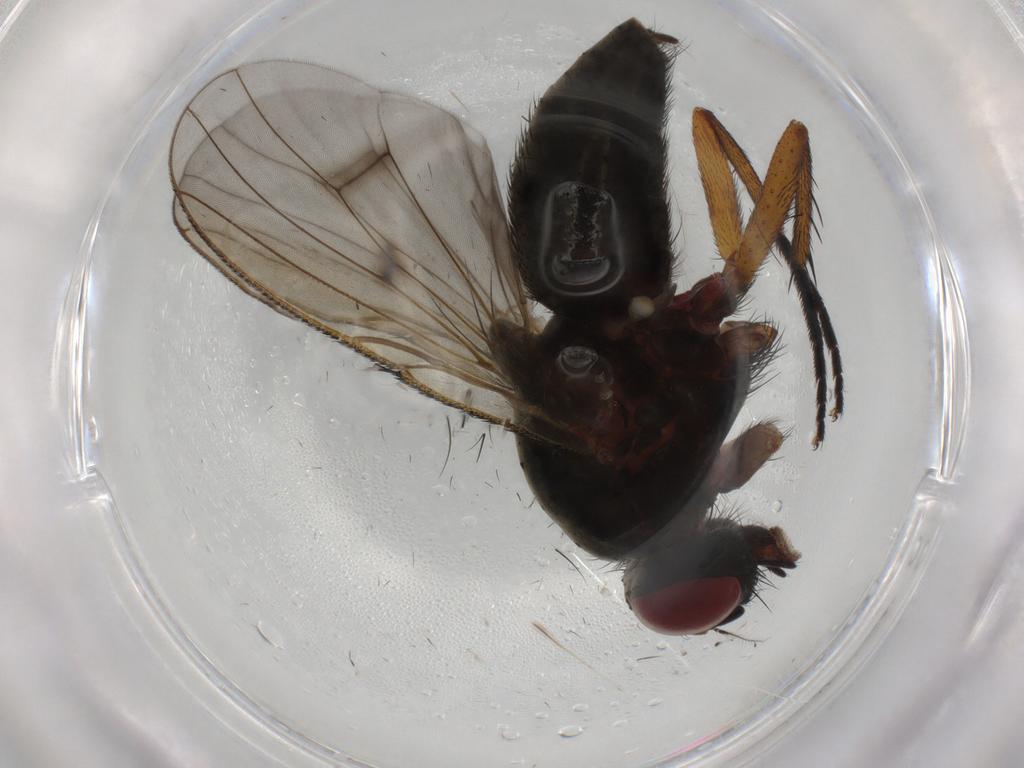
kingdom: Animalia
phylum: Arthropoda
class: Insecta
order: Diptera
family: Muscidae
